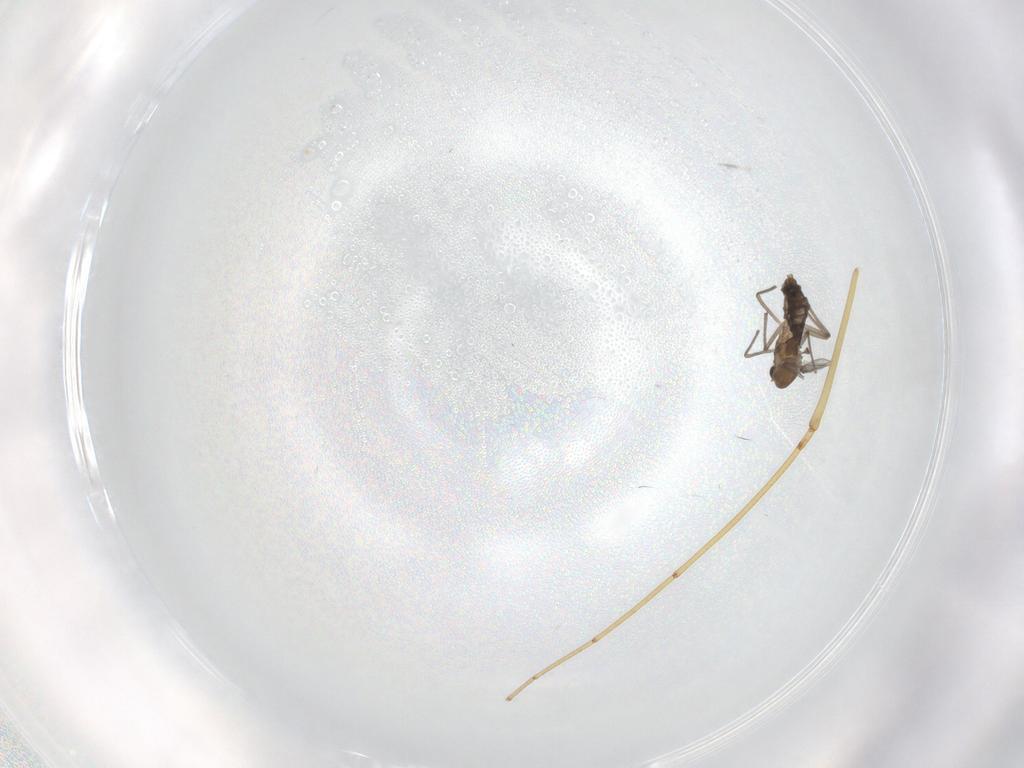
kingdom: Animalia
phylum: Arthropoda
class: Insecta
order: Diptera
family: Chironomidae
